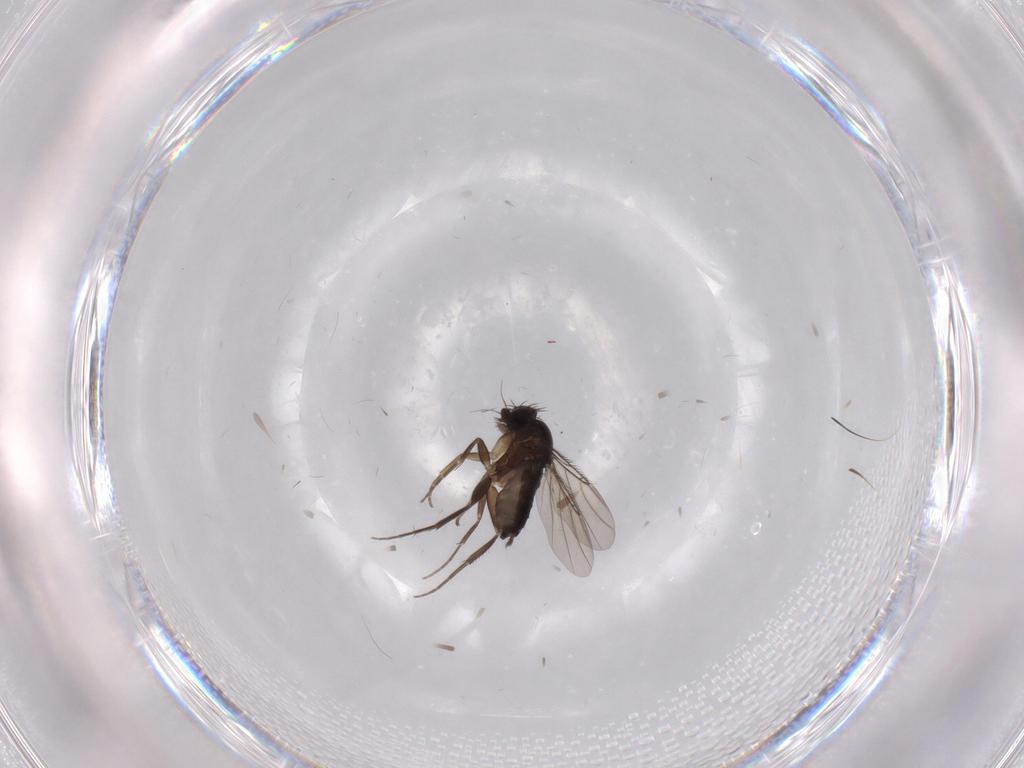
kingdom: Animalia
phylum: Arthropoda
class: Insecta
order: Diptera
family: Phoridae
